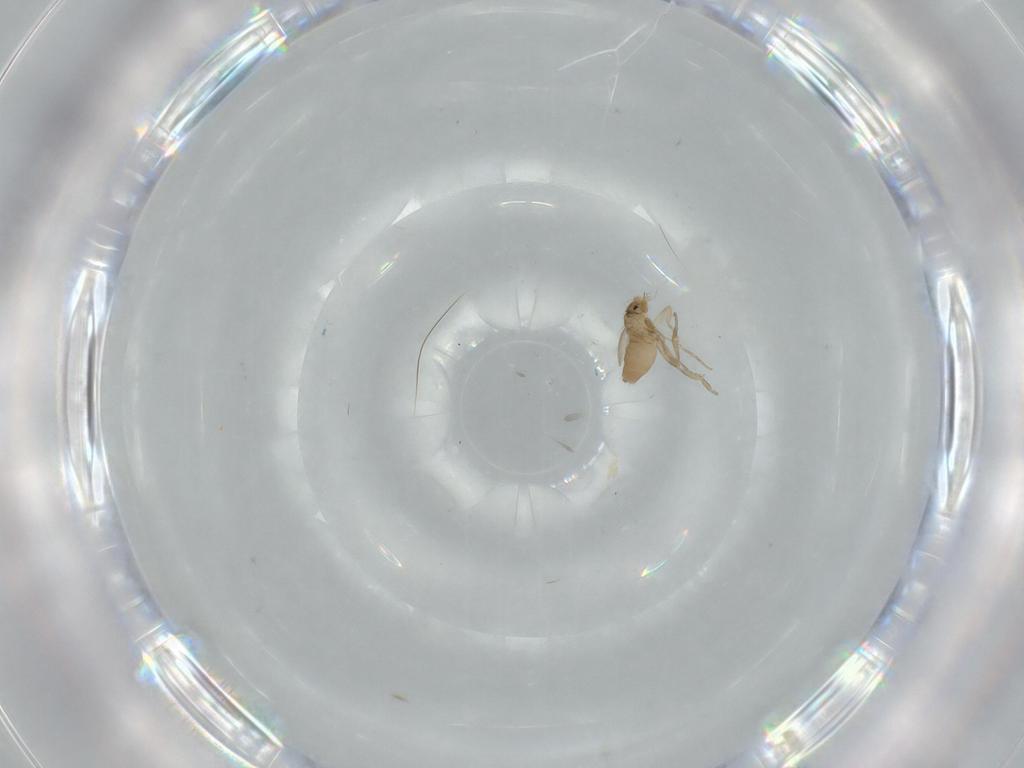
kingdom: Animalia
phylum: Arthropoda
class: Insecta
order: Diptera
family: Phoridae
